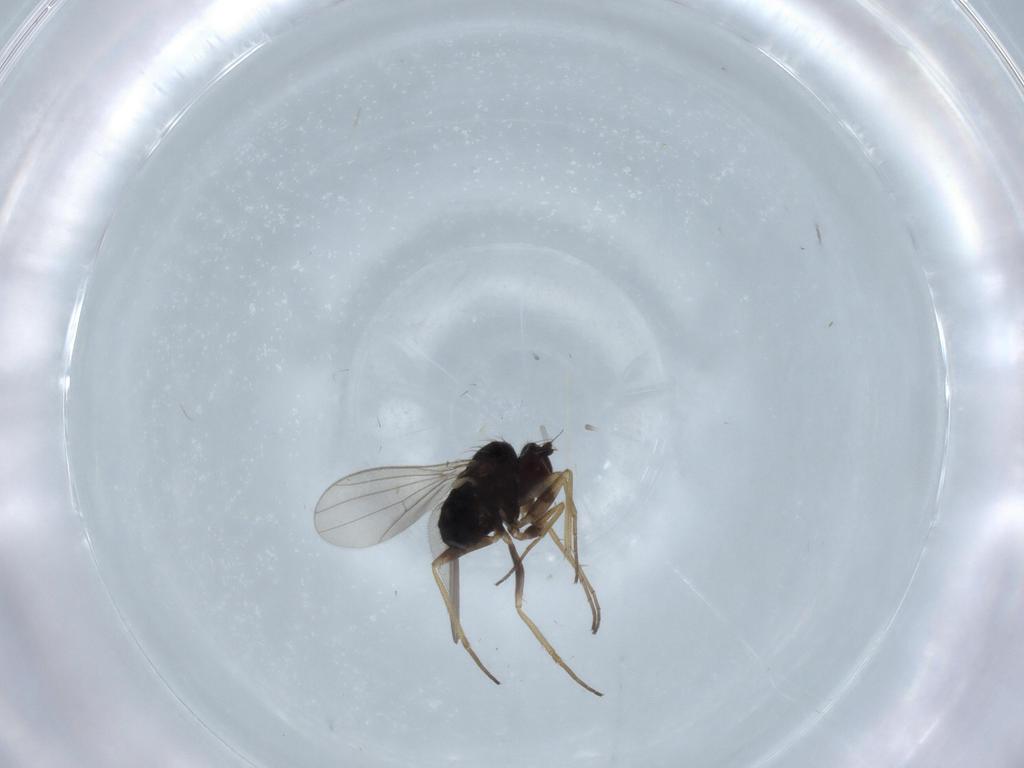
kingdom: Animalia
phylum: Arthropoda
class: Insecta
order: Diptera
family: Dolichopodidae
